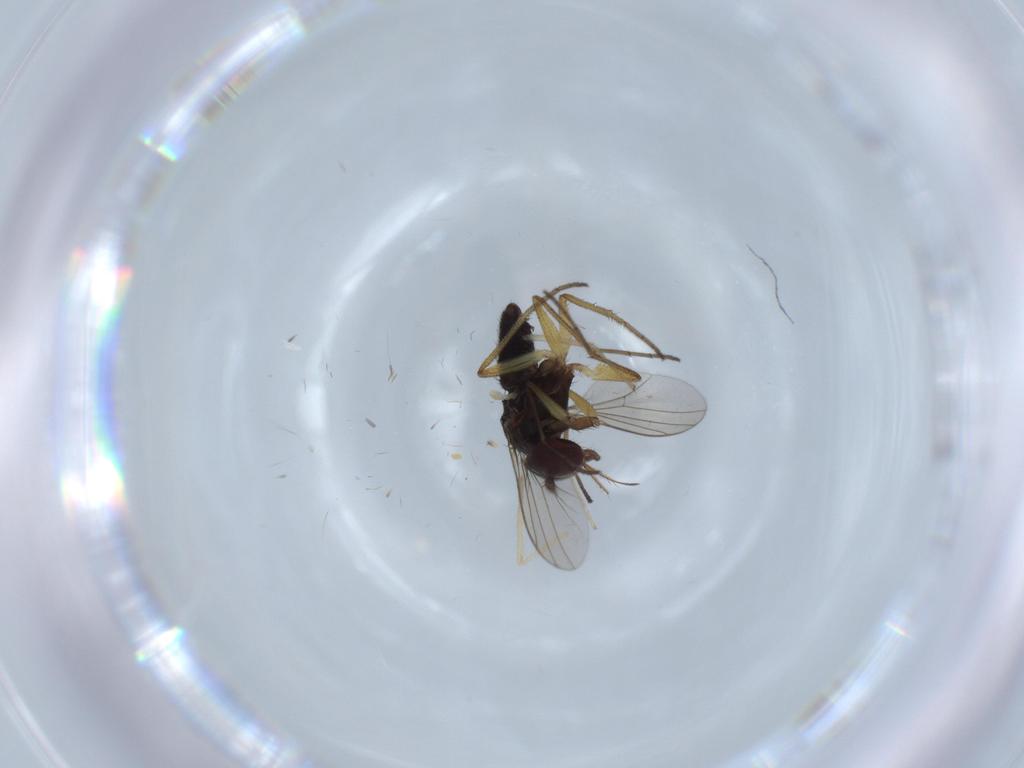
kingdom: Animalia
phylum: Arthropoda
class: Insecta
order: Diptera
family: Dolichopodidae
